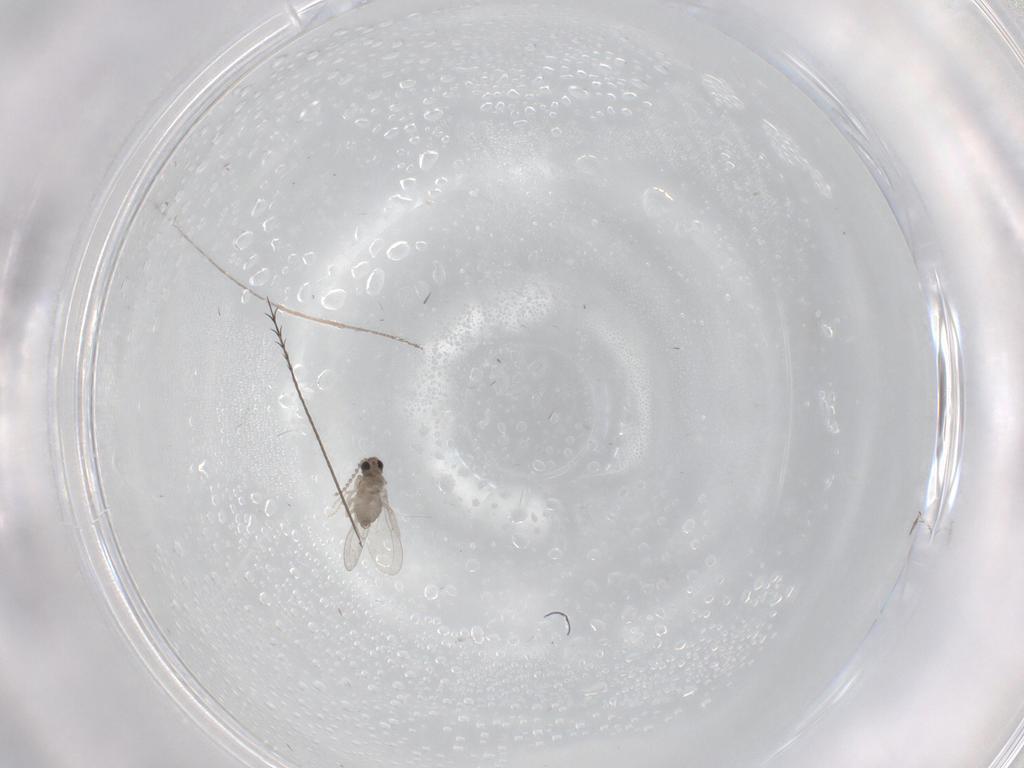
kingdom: Animalia
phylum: Arthropoda
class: Insecta
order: Diptera
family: Cecidomyiidae
